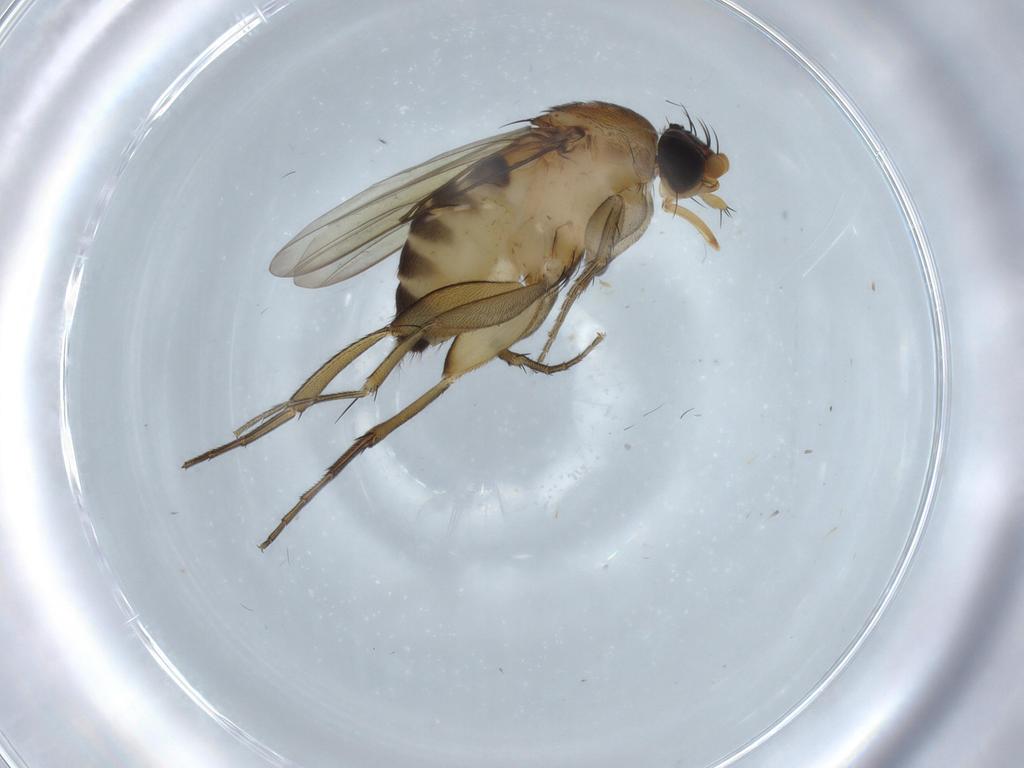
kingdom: Animalia
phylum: Arthropoda
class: Insecta
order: Diptera
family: Phoridae
